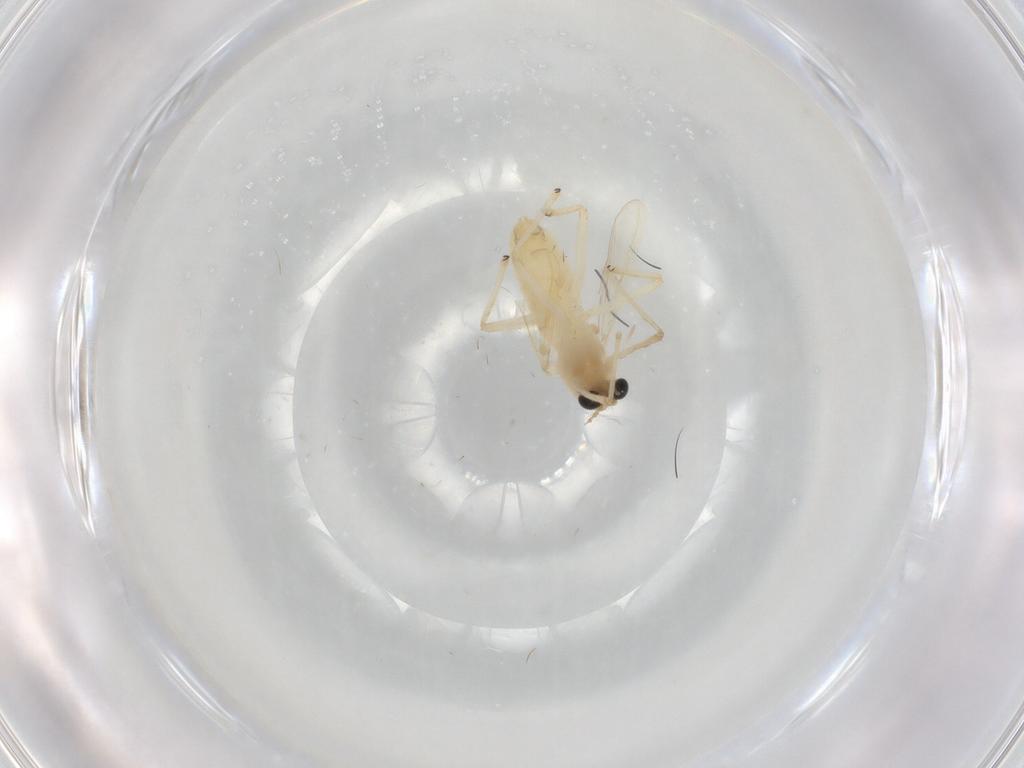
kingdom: Animalia
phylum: Arthropoda
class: Insecta
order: Diptera
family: Chironomidae
